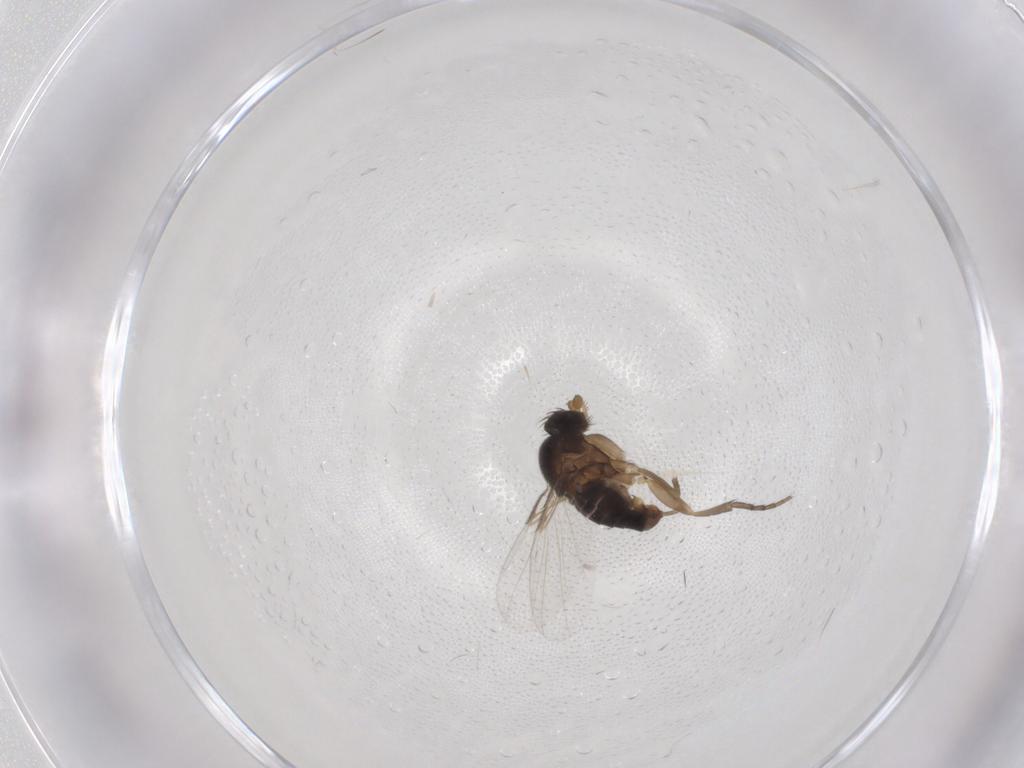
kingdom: Animalia
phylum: Arthropoda
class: Insecta
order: Diptera
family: Phoridae
